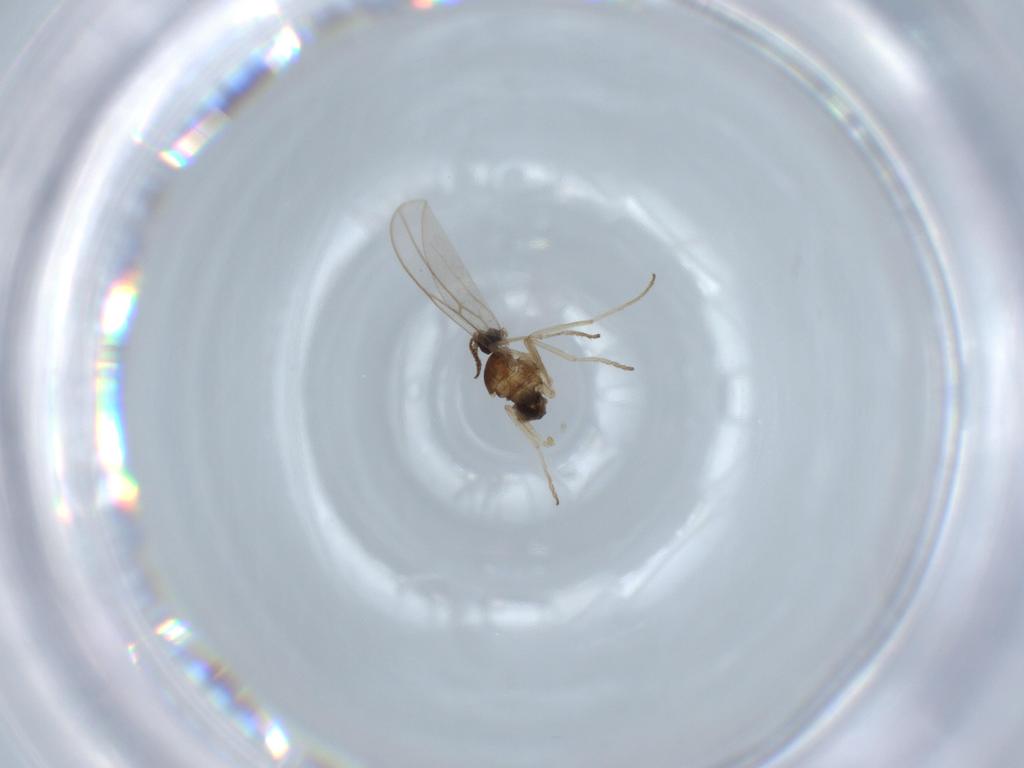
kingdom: Animalia
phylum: Arthropoda
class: Insecta
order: Diptera
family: Cecidomyiidae
